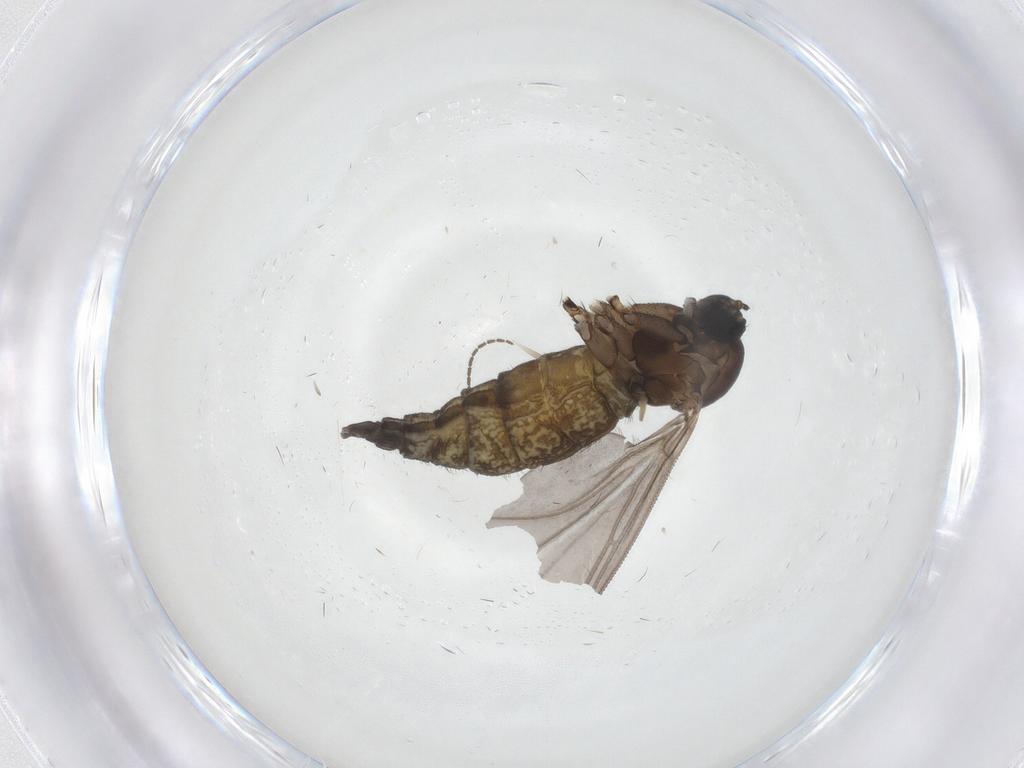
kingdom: Animalia
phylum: Arthropoda
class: Insecta
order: Diptera
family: Sciaridae
